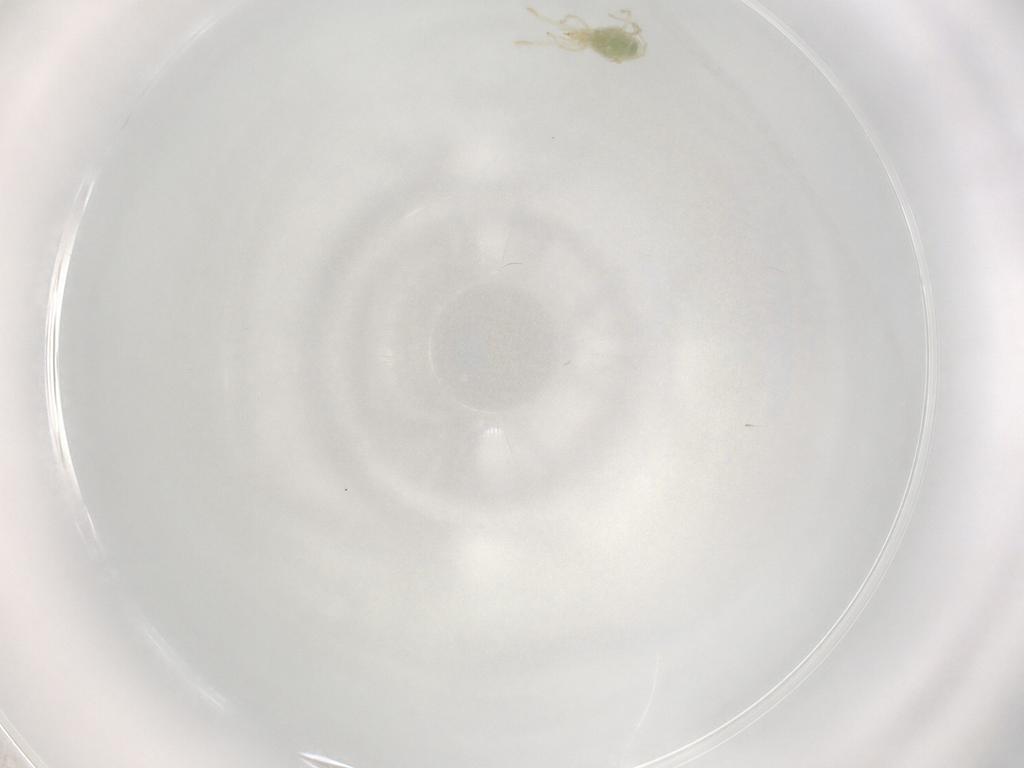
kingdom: Animalia
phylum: Arthropoda
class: Arachnida
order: Trombidiformes
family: Erythraeidae
